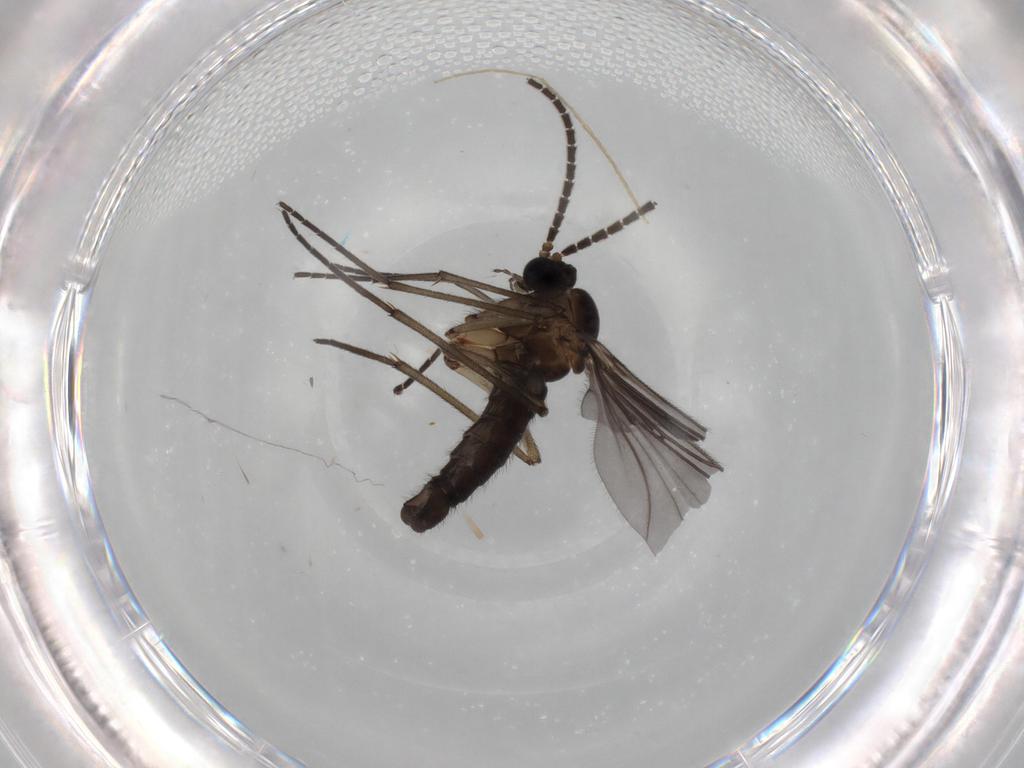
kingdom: Animalia
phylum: Arthropoda
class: Insecta
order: Diptera
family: Sciaridae
